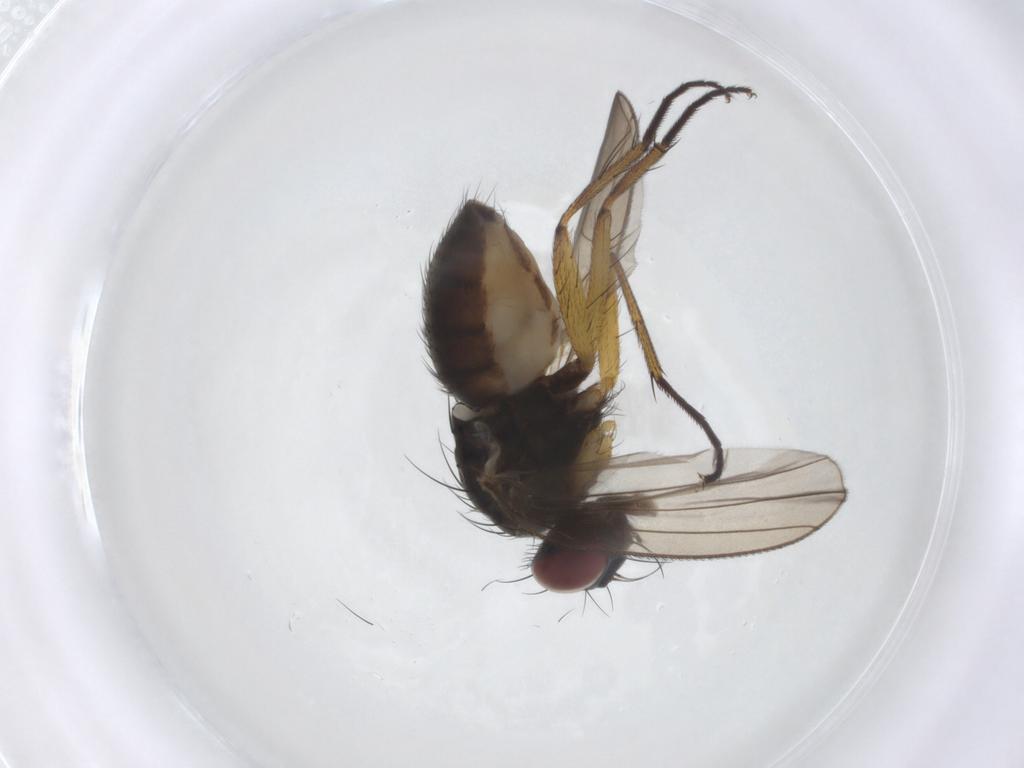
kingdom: Animalia
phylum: Arthropoda
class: Insecta
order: Diptera
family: Muscidae
